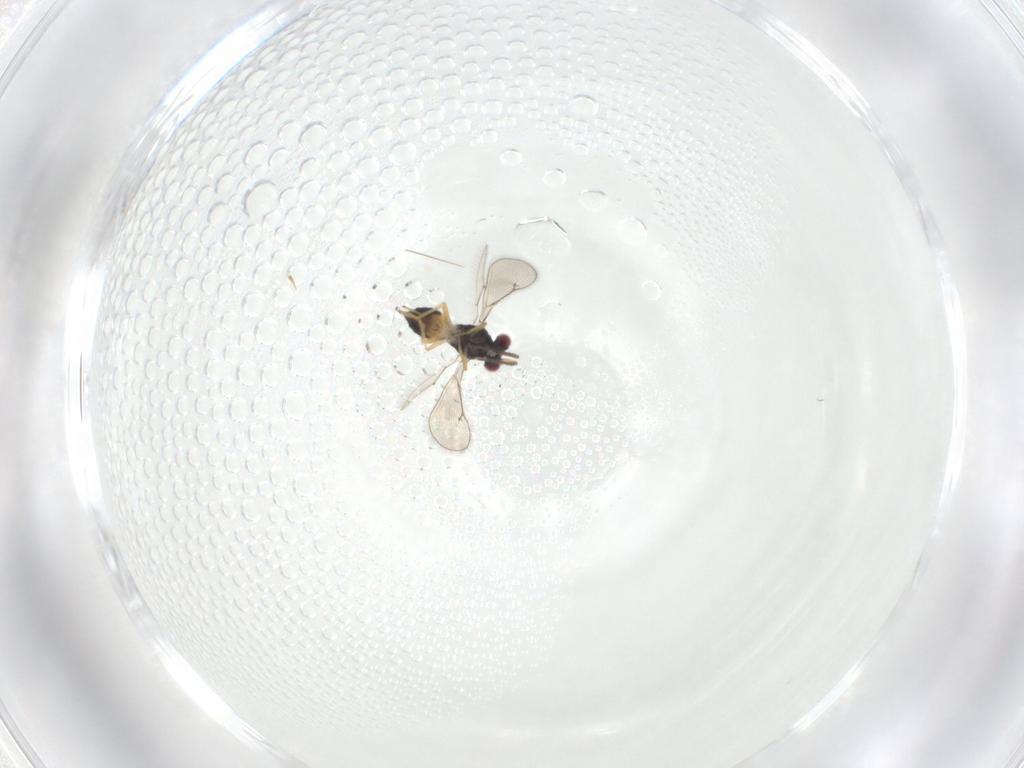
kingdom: Animalia
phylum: Arthropoda
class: Insecta
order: Hymenoptera
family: Eulophidae
